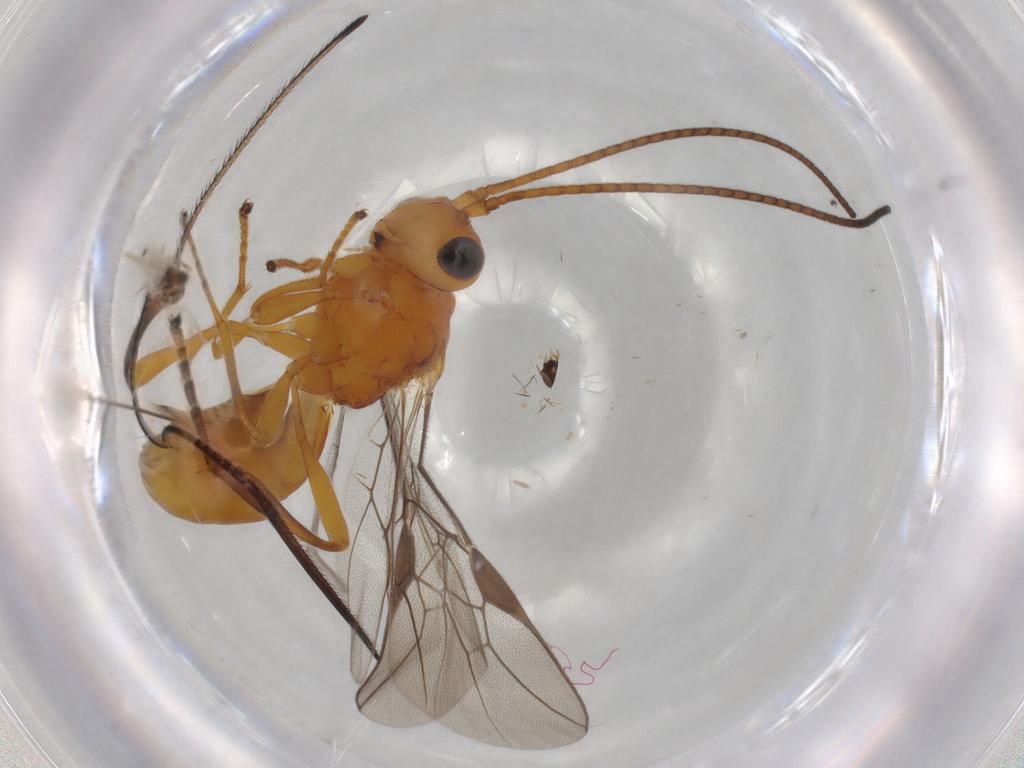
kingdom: Animalia
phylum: Arthropoda
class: Insecta
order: Hymenoptera
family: Braconidae
